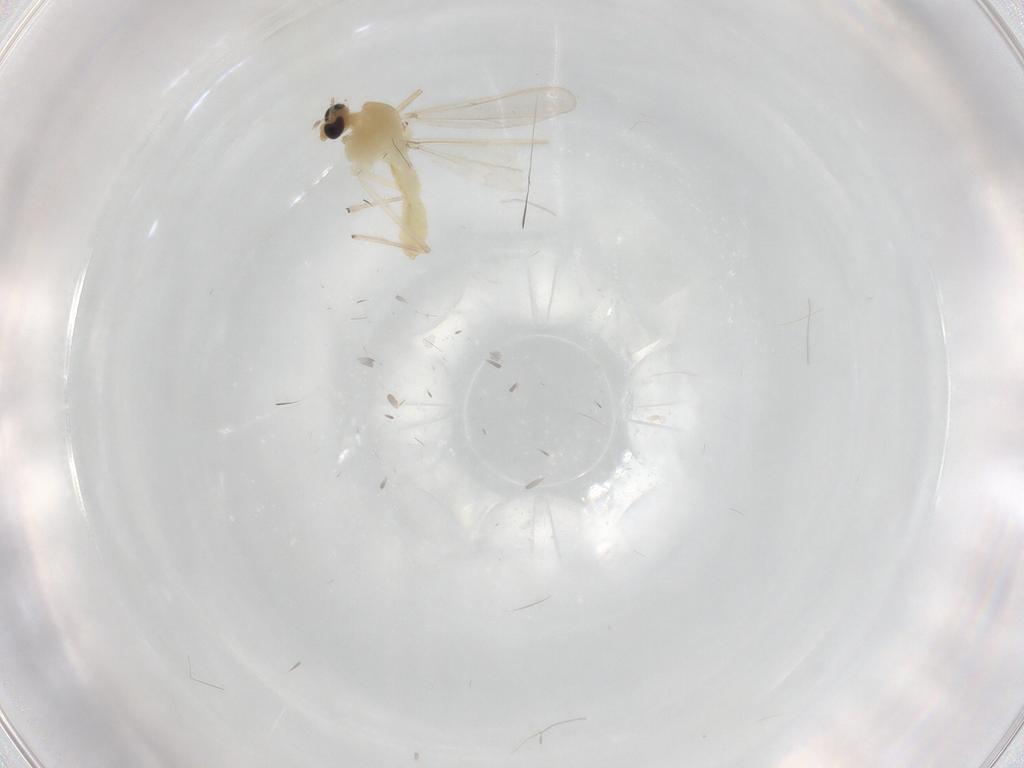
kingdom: Animalia
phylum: Arthropoda
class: Insecta
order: Diptera
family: Chironomidae
